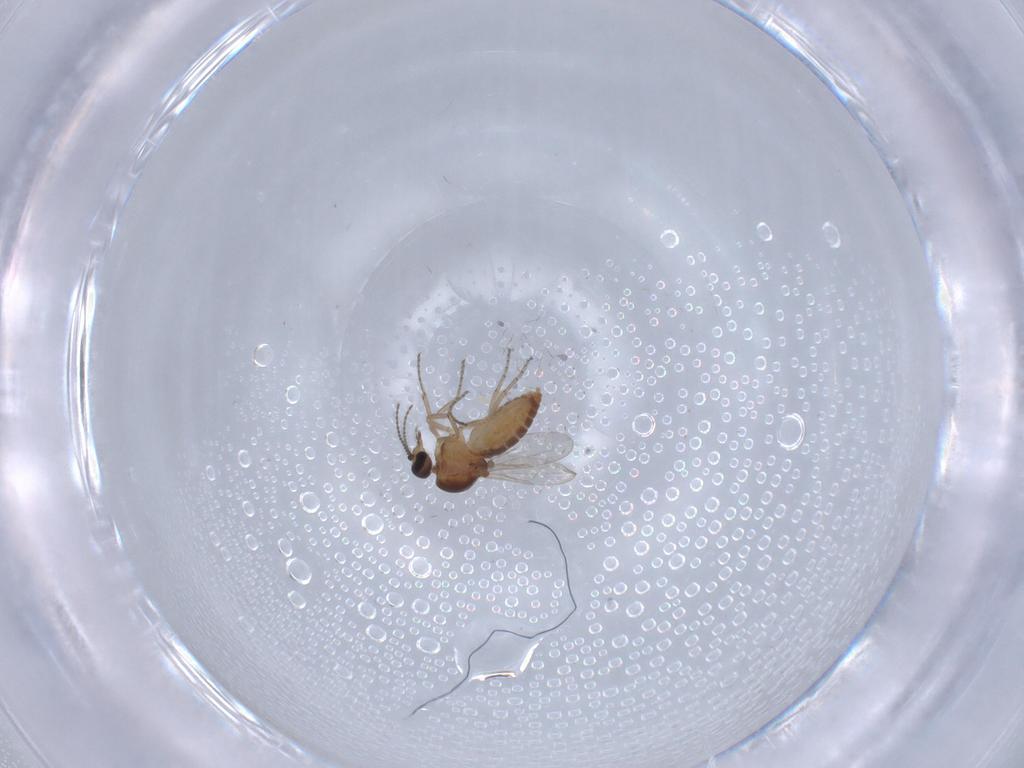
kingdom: Animalia
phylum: Arthropoda
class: Insecta
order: Diptera
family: Ceratopogonidae
